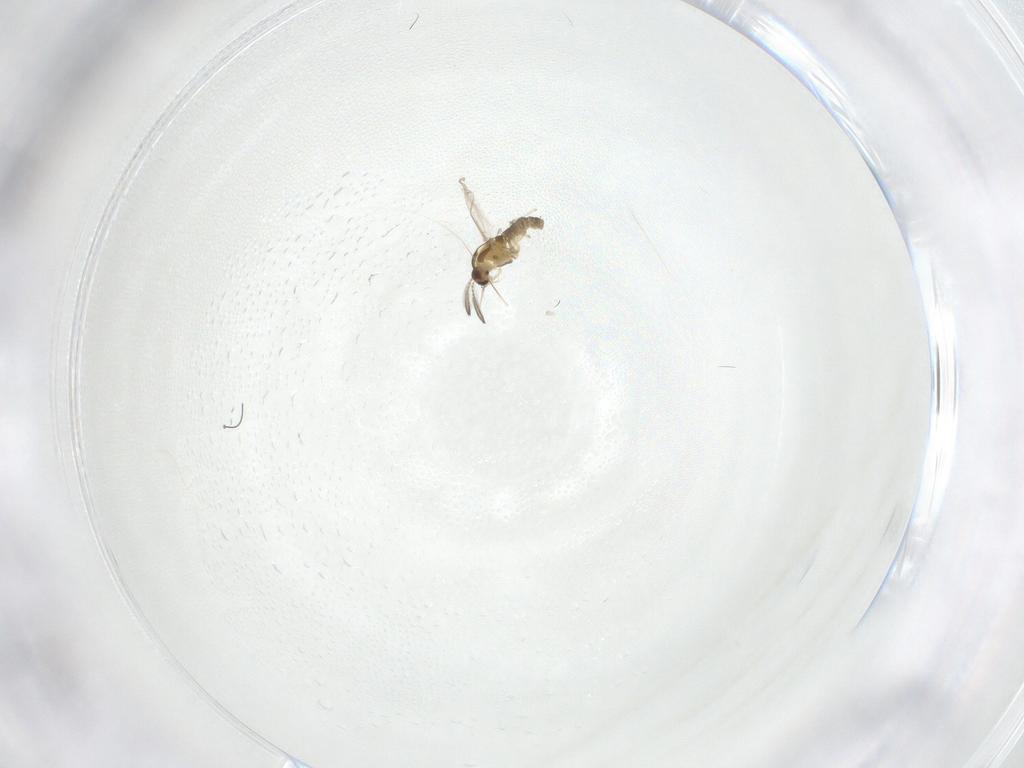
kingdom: Animalia
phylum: Arthropoda
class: Insecta
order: Diptera
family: Chironomidae
